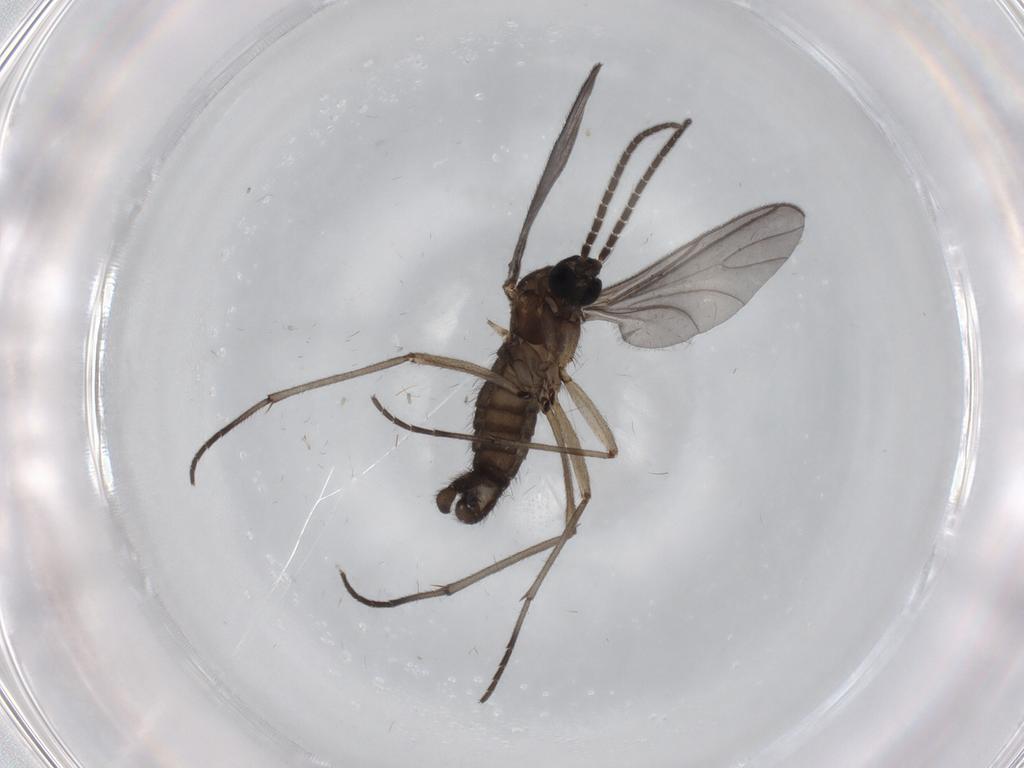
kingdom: Animalia
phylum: Arthropoda
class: Insecta
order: Diptera
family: Sciaridae
